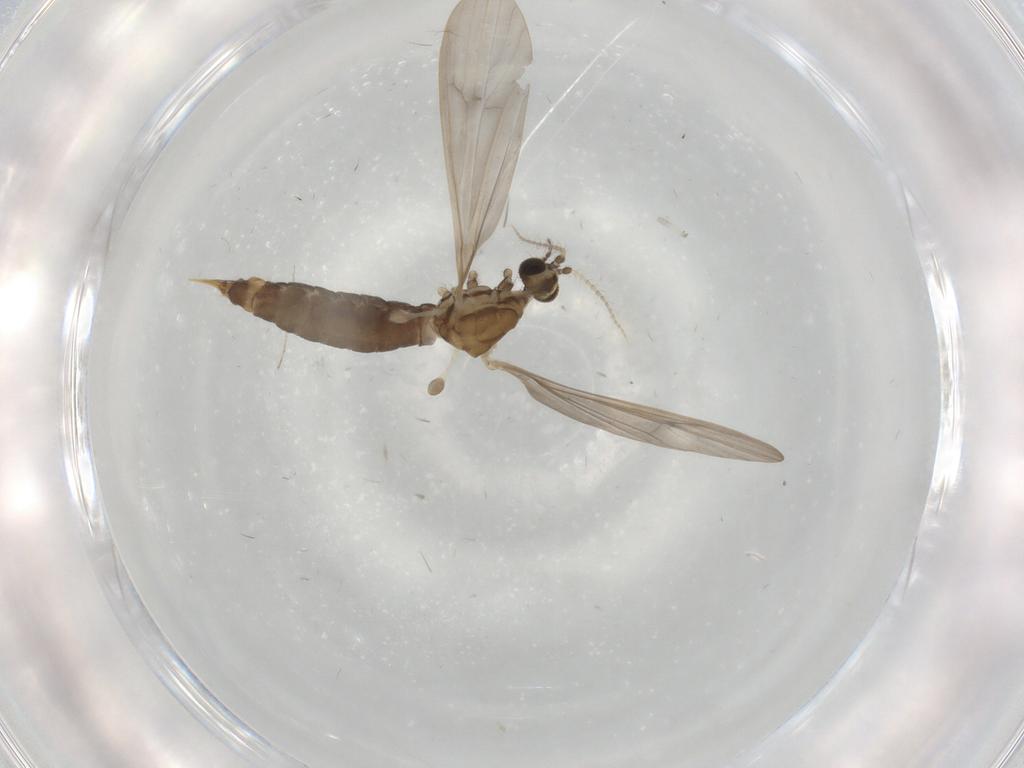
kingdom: Animalia
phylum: Arthropoda
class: Insecta
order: Diptera
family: Limoniidae
